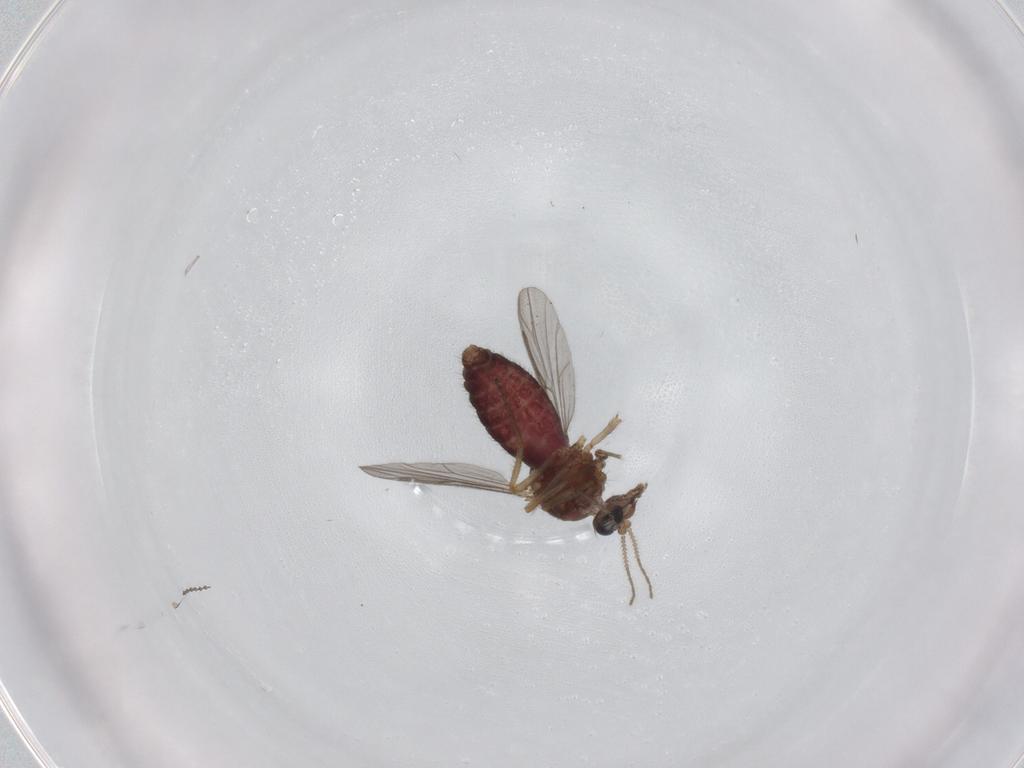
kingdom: Animalia
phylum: Arthropoda
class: Insecta
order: Diptera
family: Ceratopogonidae
